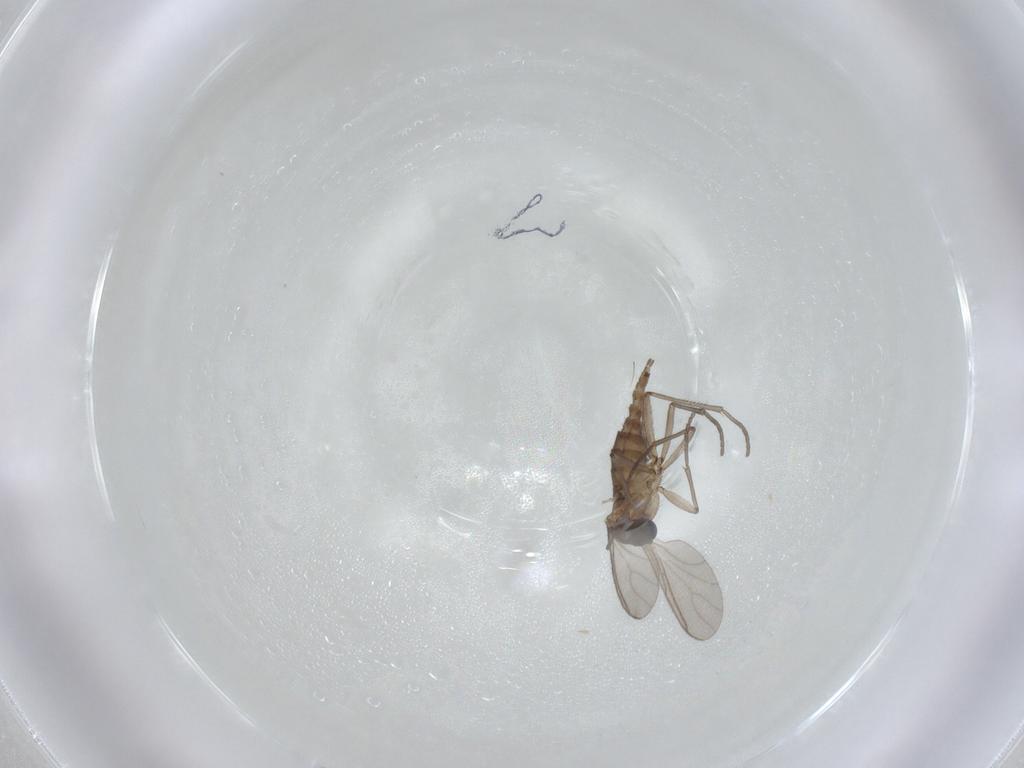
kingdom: Animalia
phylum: Arthropoda
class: Insecta
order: Diptera
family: Sciaridae
